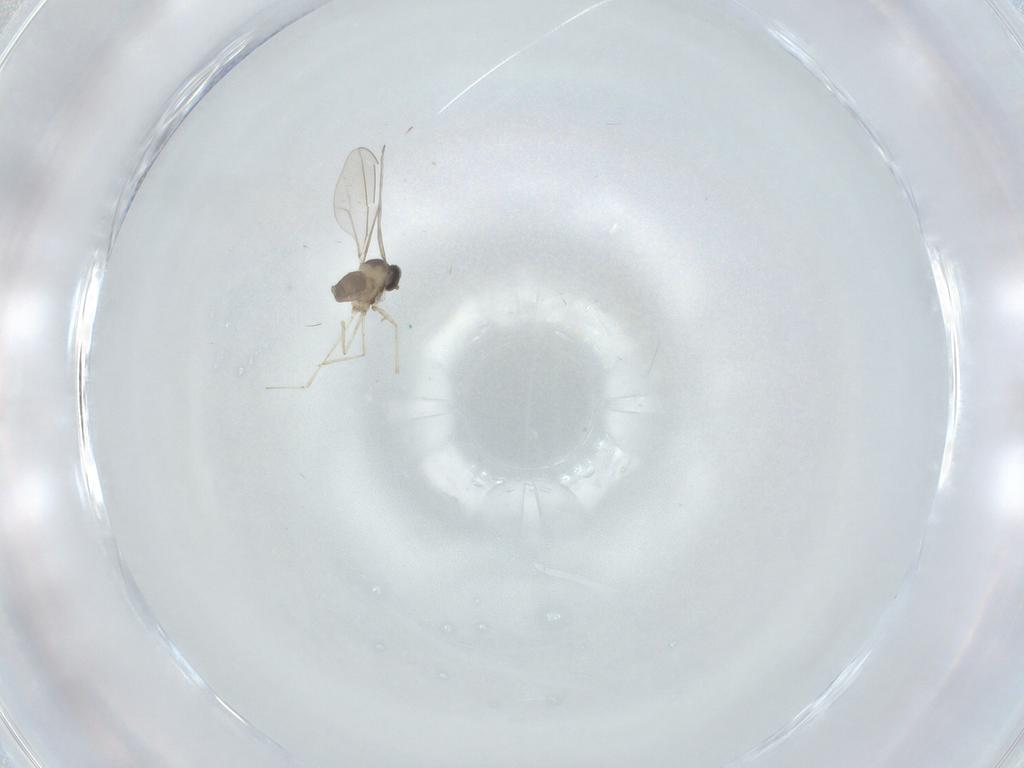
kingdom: Animalia
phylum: Arthropoda
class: Insecta
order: Diptera
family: Cecidomyiidae
